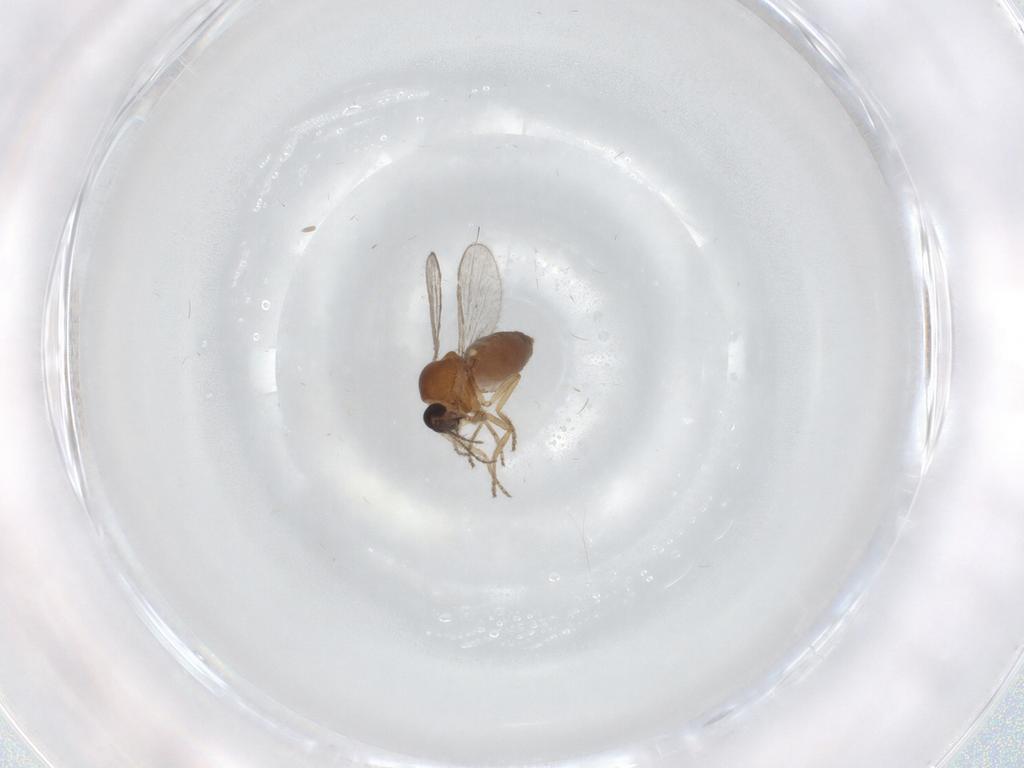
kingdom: Animalia
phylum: Arthropoda
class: Insecta
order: Diptera
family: Ceratopogonidae
